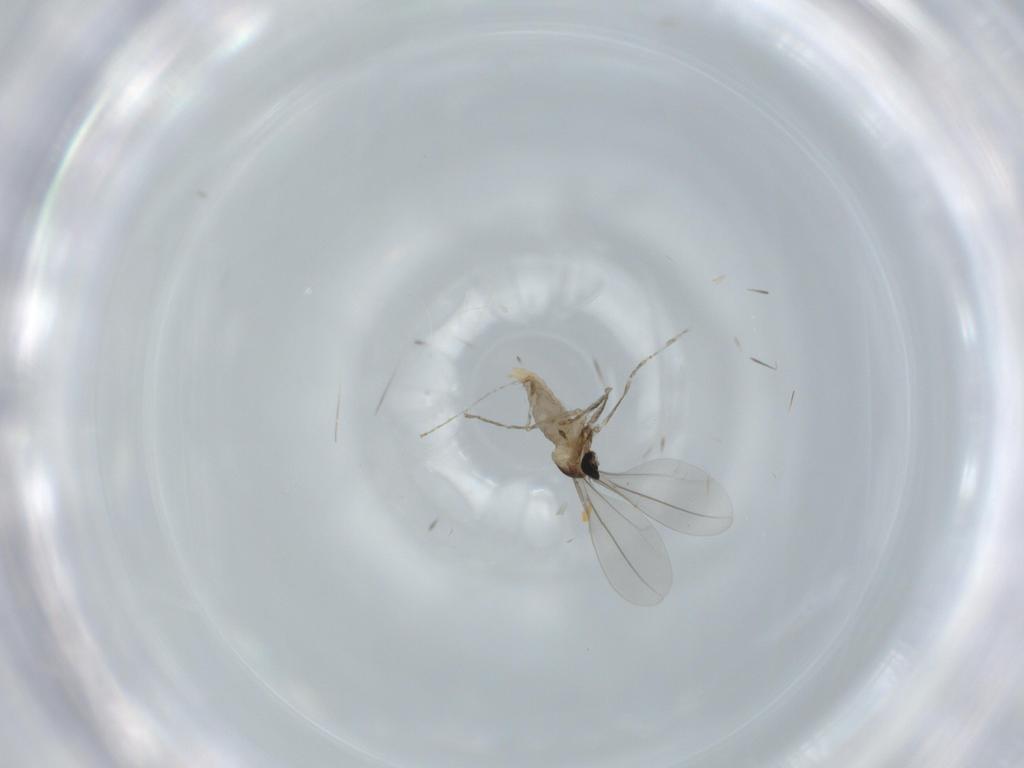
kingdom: Animalia
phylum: Arthropoda
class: Insecta
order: Diptera
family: Cecidomyiidae
